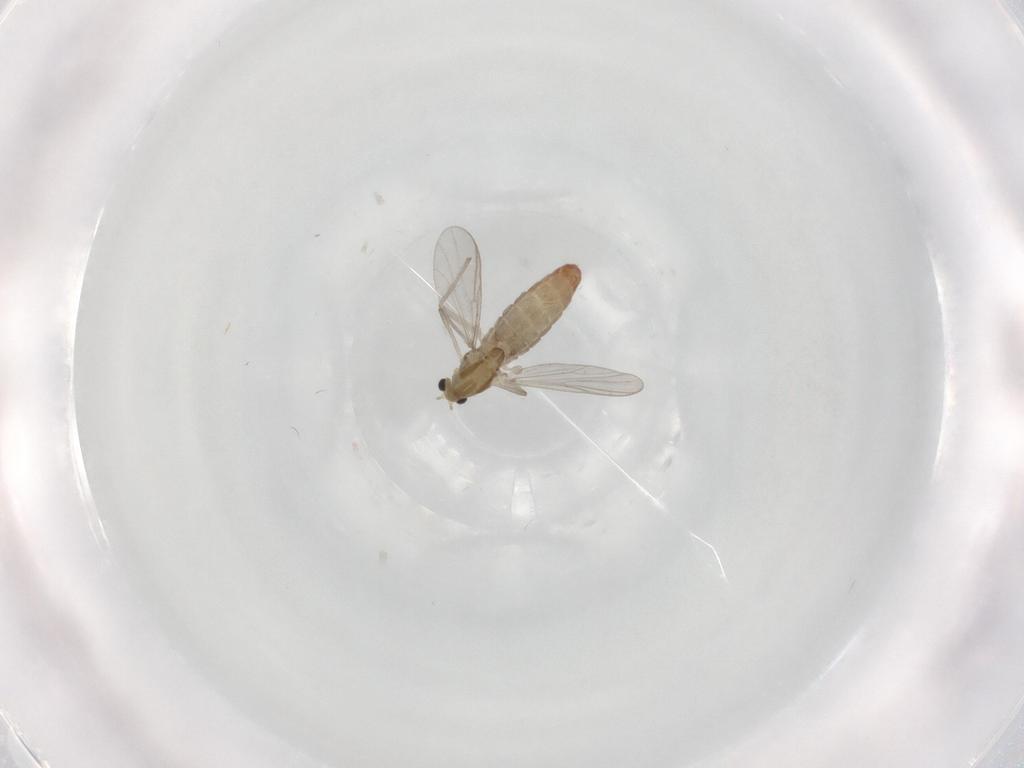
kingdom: Animalia
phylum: Arthropoda
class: Insecta
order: Diptera
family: Chironomidae
